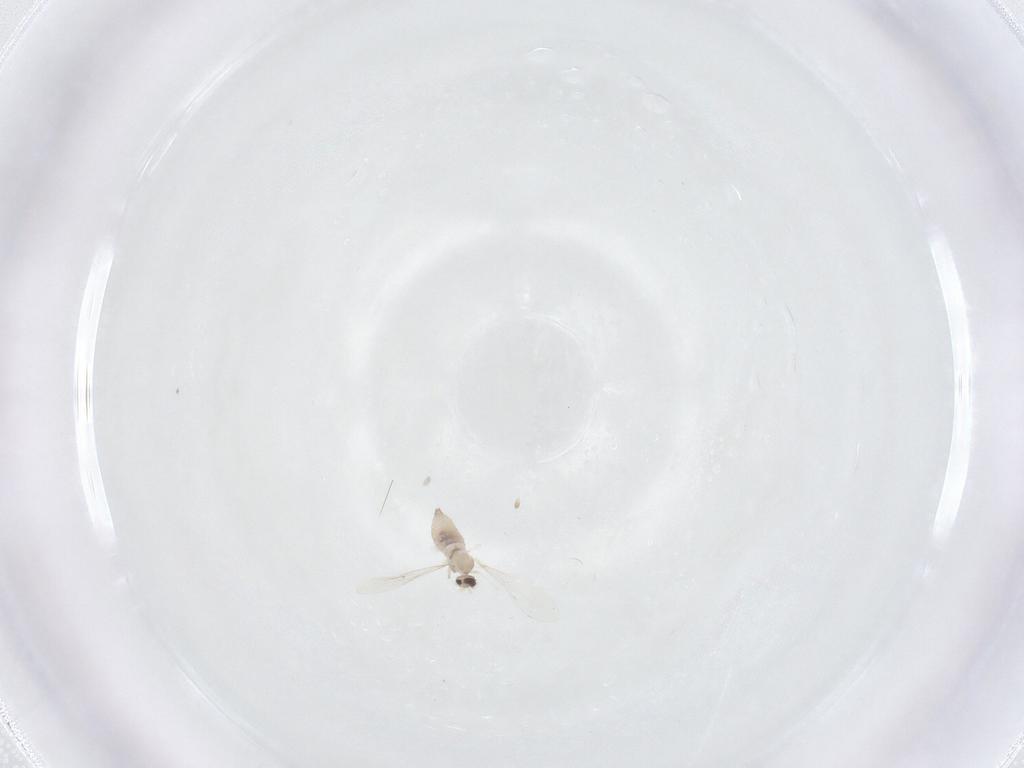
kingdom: Animalia
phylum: Arthropoda
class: Insecta
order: Diptera
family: Cecidomyiidae
